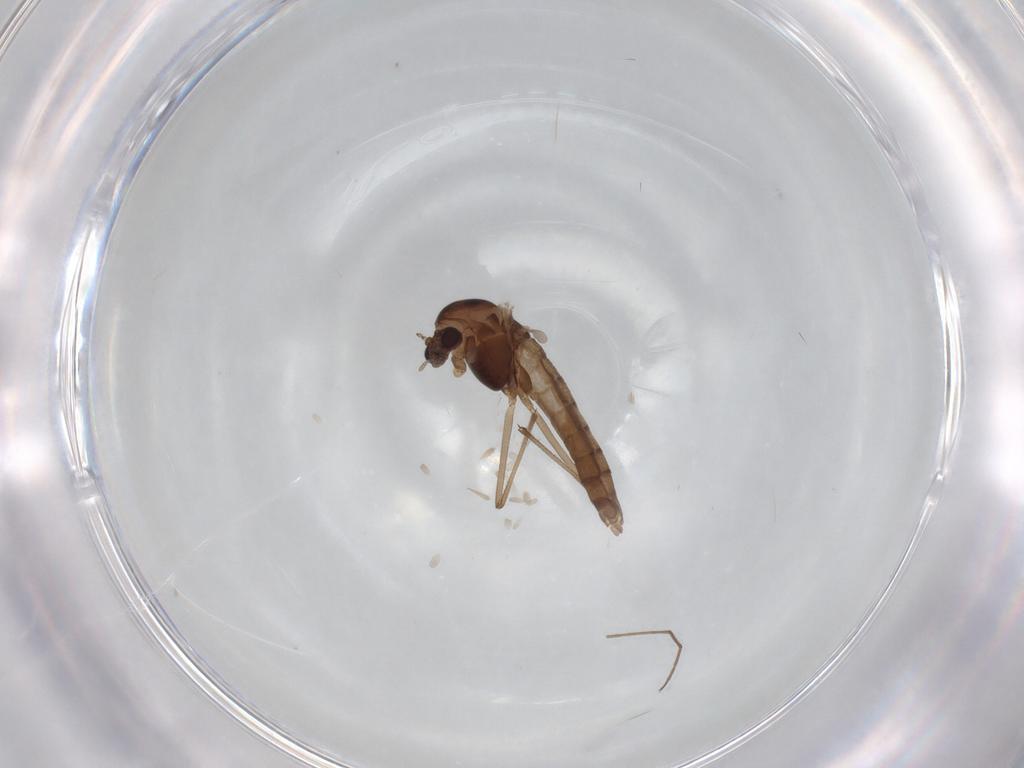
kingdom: Animalia
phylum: Arthropoda
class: Insecta
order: Diptera
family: Chironomidae
